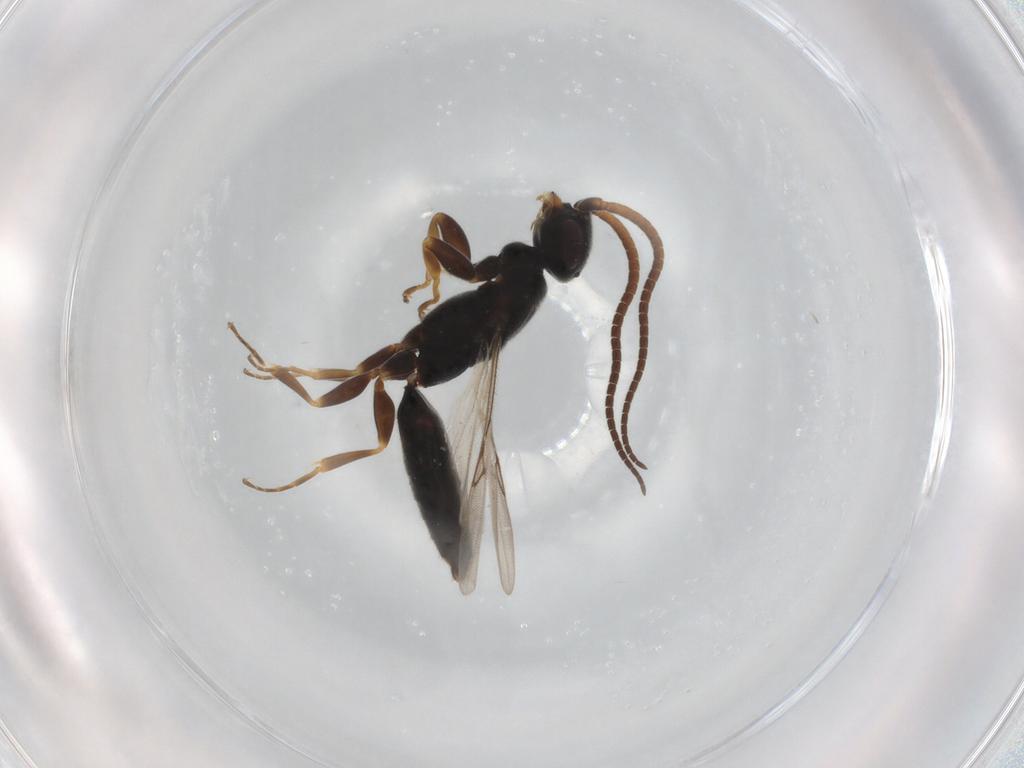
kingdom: Animalia
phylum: Arthropoda
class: Insecta
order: Hymenoptera
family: Sclerogibbidae
